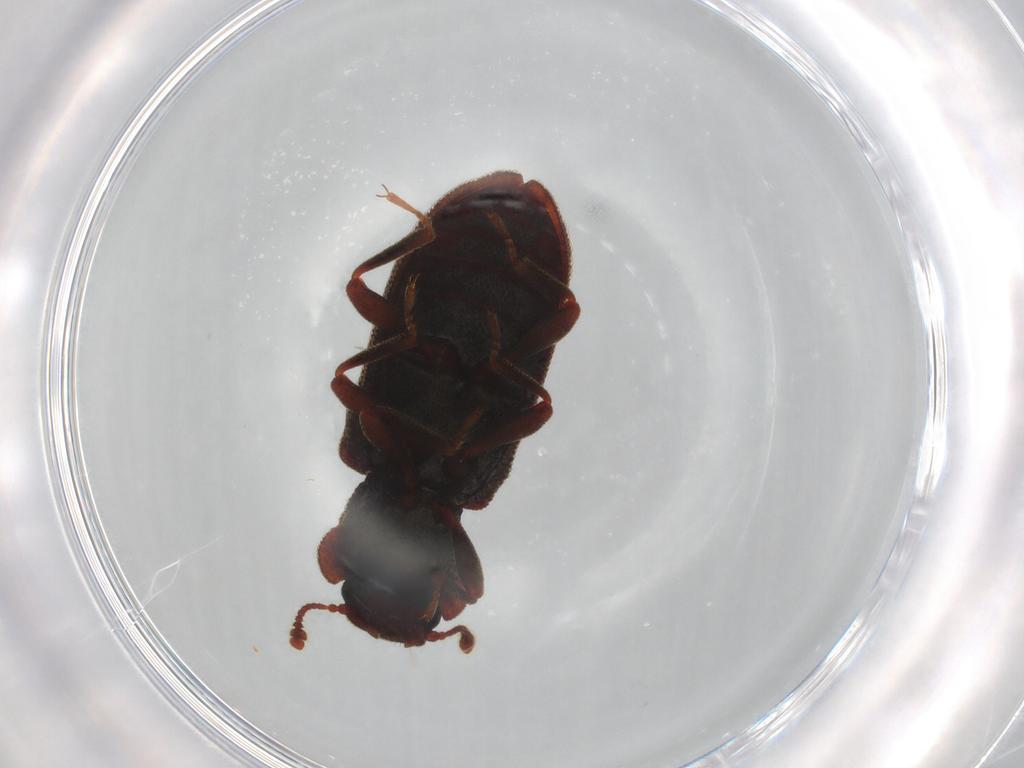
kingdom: Animalia
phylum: Arthropoda
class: Insecta
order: Coleoptera
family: Zopheridae
